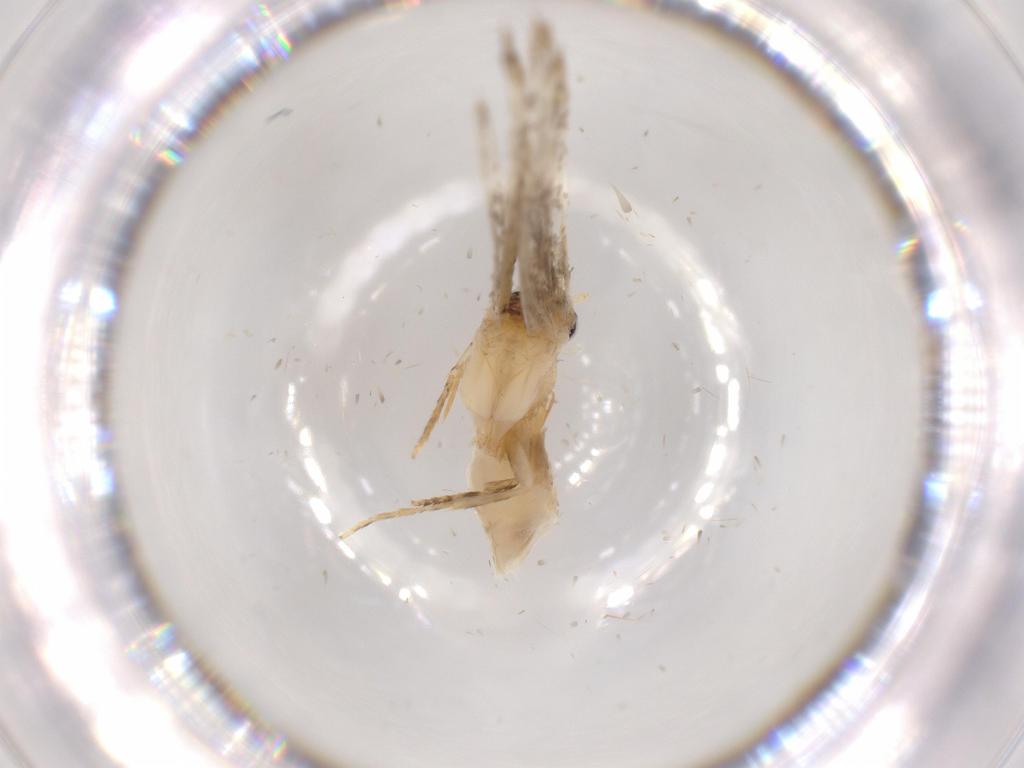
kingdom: Animalia
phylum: Arthropoda
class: Insecta
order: Lepidoptera
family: Tineidae
